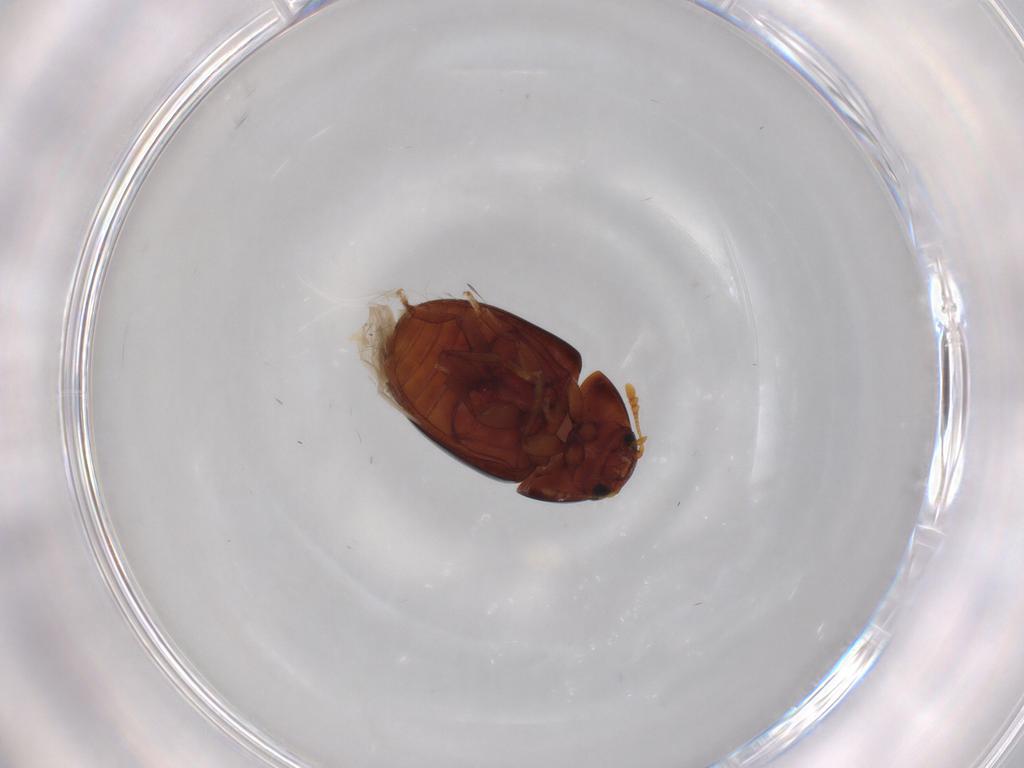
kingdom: Animalia
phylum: Arthropoda
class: Insecta
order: Coleoptera
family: Phalacridae
